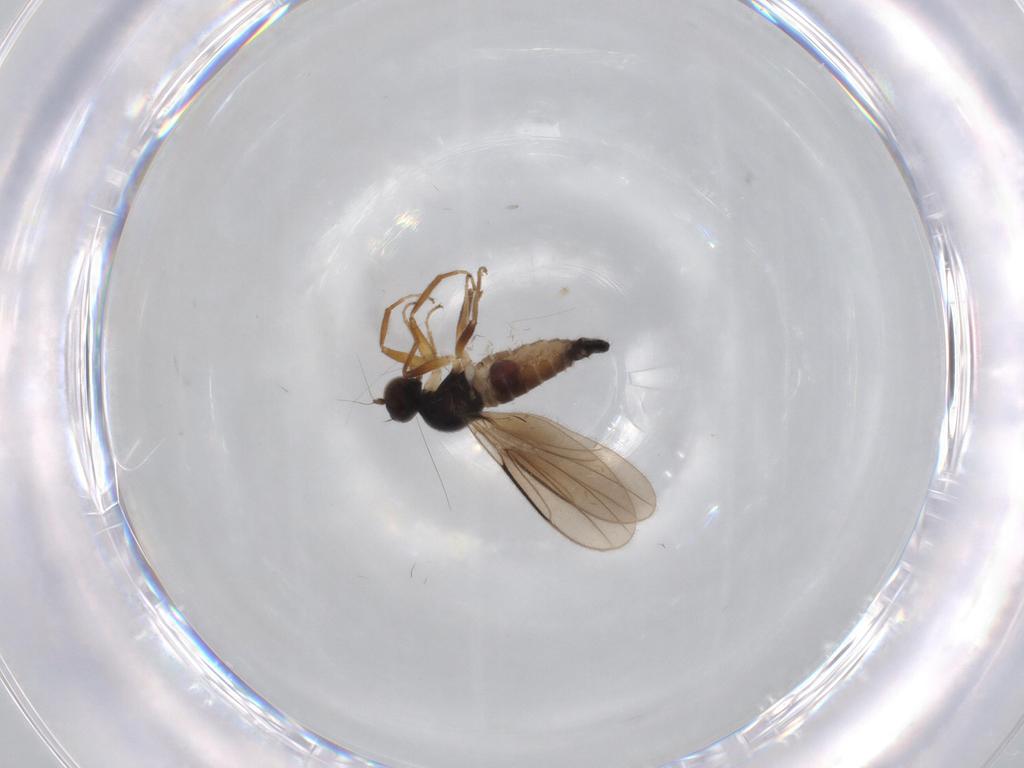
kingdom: Animalia
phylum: Arthropoda
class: Insecta
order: Diptera
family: Hybotidae
